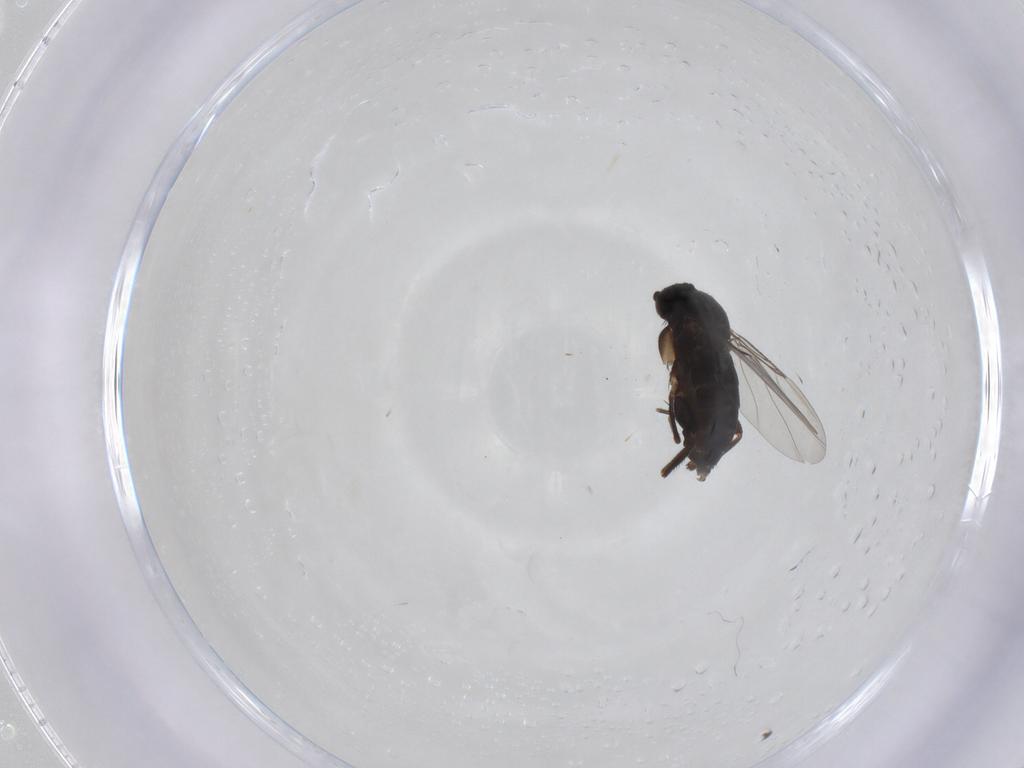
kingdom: Animalia
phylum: Arthropoda
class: Insecta
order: Diptera
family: Phoridae
